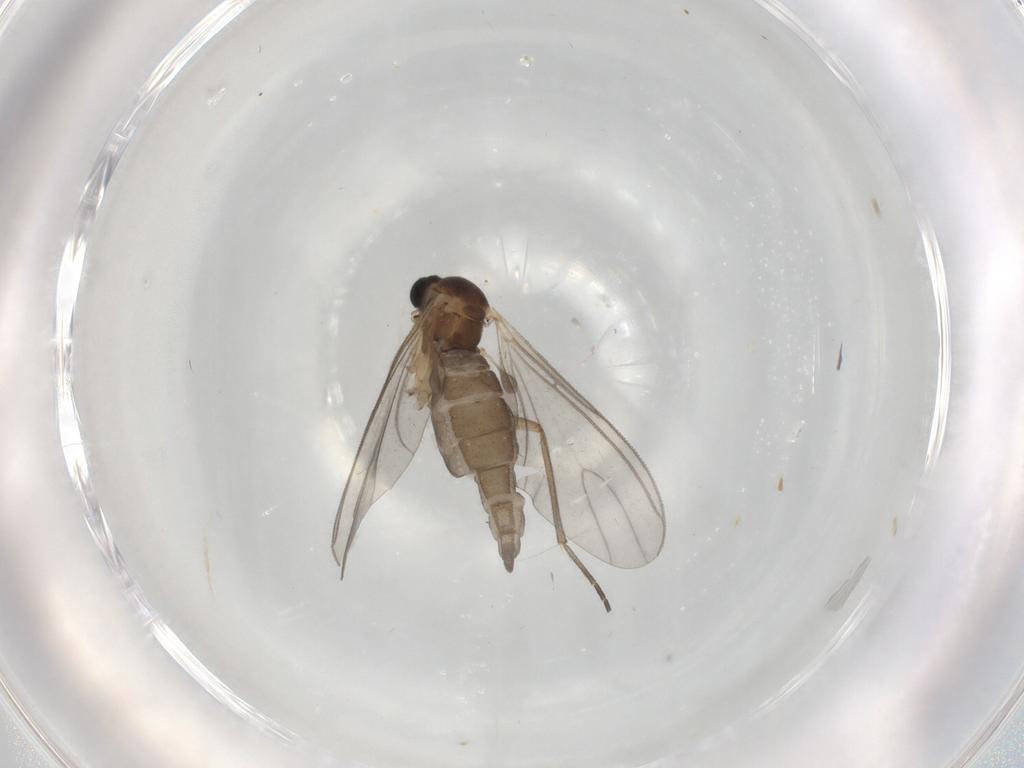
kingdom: Animalia
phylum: Arthropoda
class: Insecta
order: Diptera
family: Sciaridae
